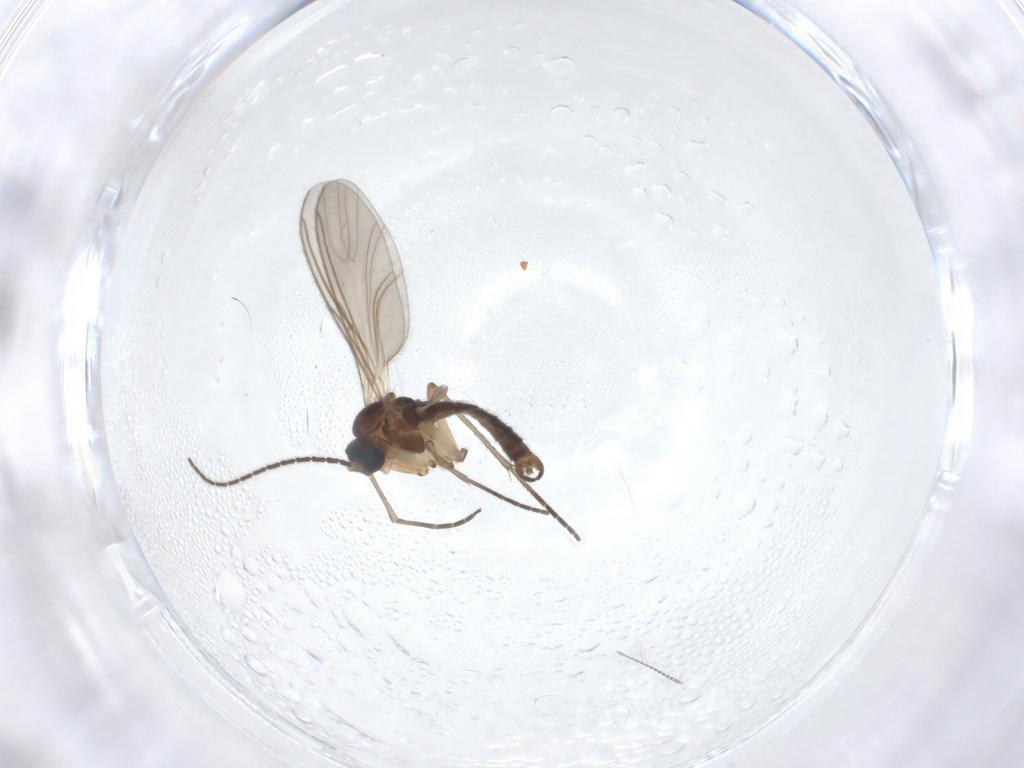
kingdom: Animalia
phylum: Arthropoda
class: Insecta
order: Diptera
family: Sciaridae
